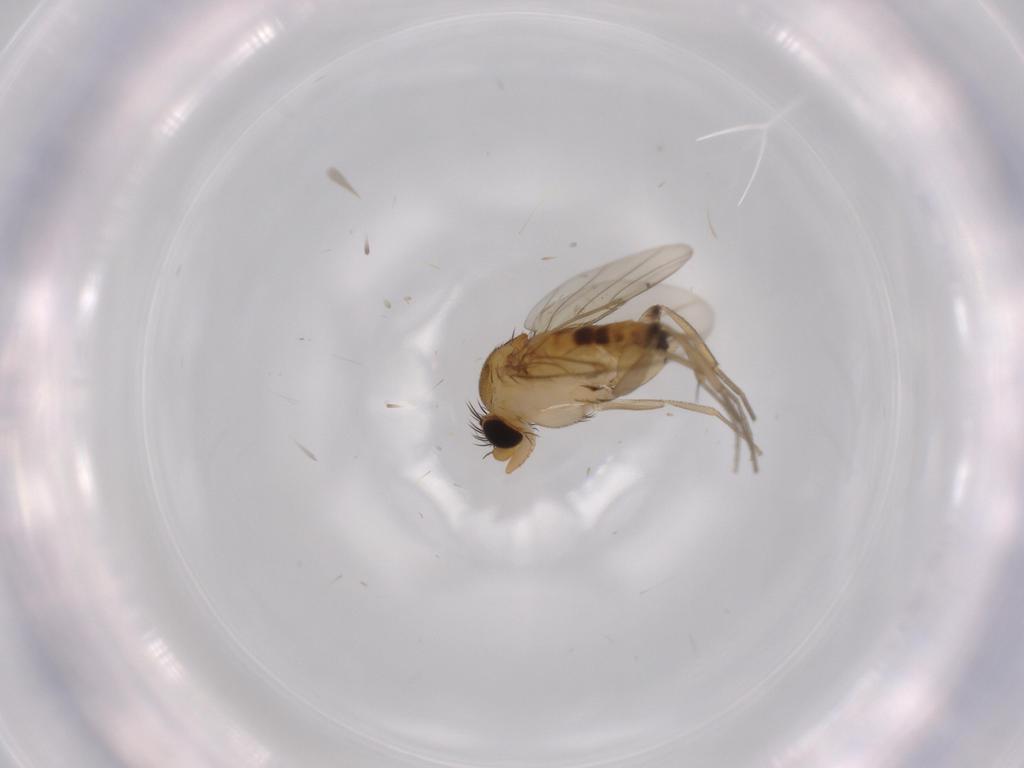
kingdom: Animalia
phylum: Arthropoda
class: Insecta
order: Diptera
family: Phoridae
